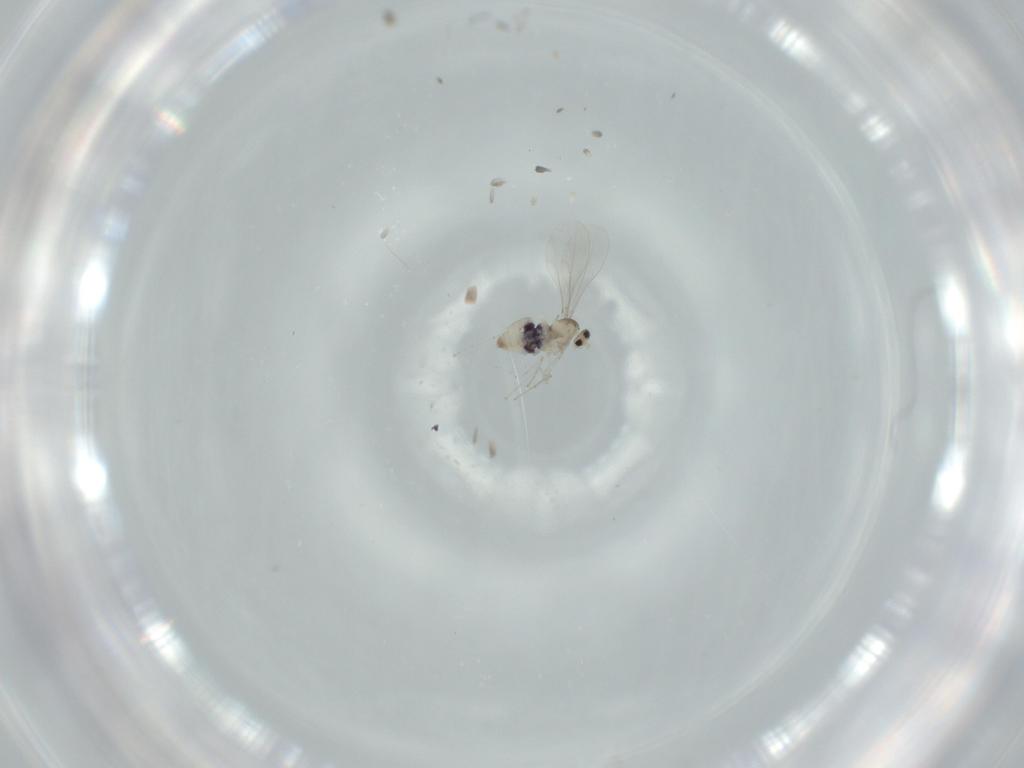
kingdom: Animalia
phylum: Arthropoda
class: Insecta
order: Diptera
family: Cecidomyiidae
